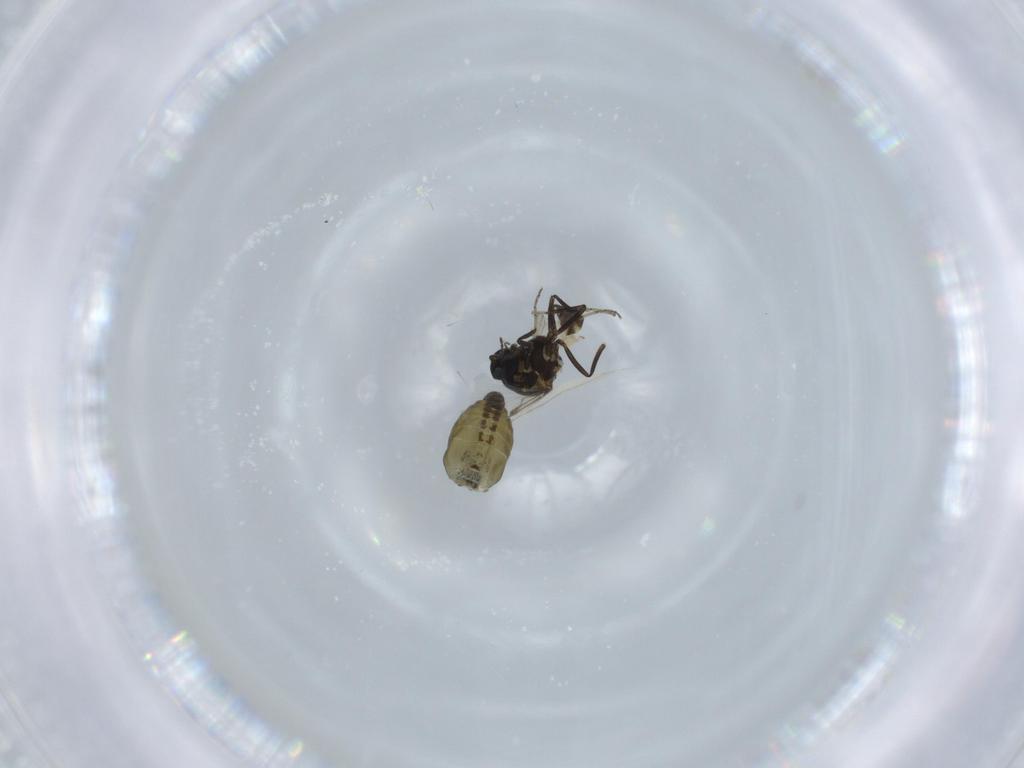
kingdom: Animalia
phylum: Arthropoda
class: Insecta
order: Diptera
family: Ceratopogonidae
